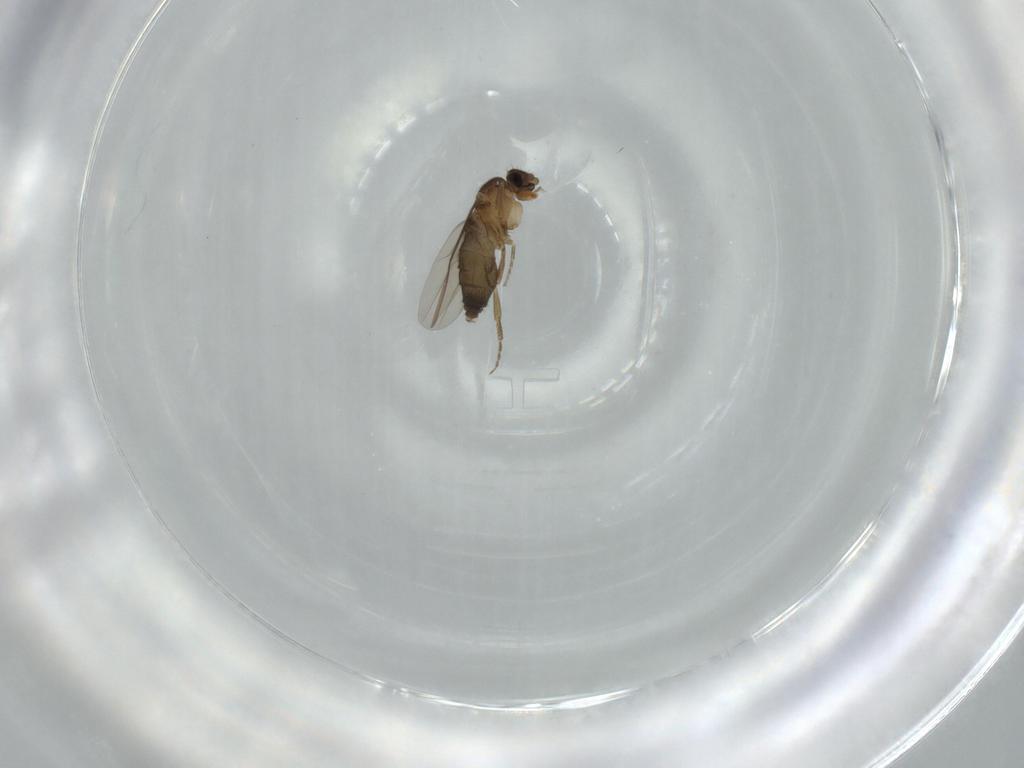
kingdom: Animalia
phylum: Arthropoda
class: Insecta
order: Diptera
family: Phoridae
